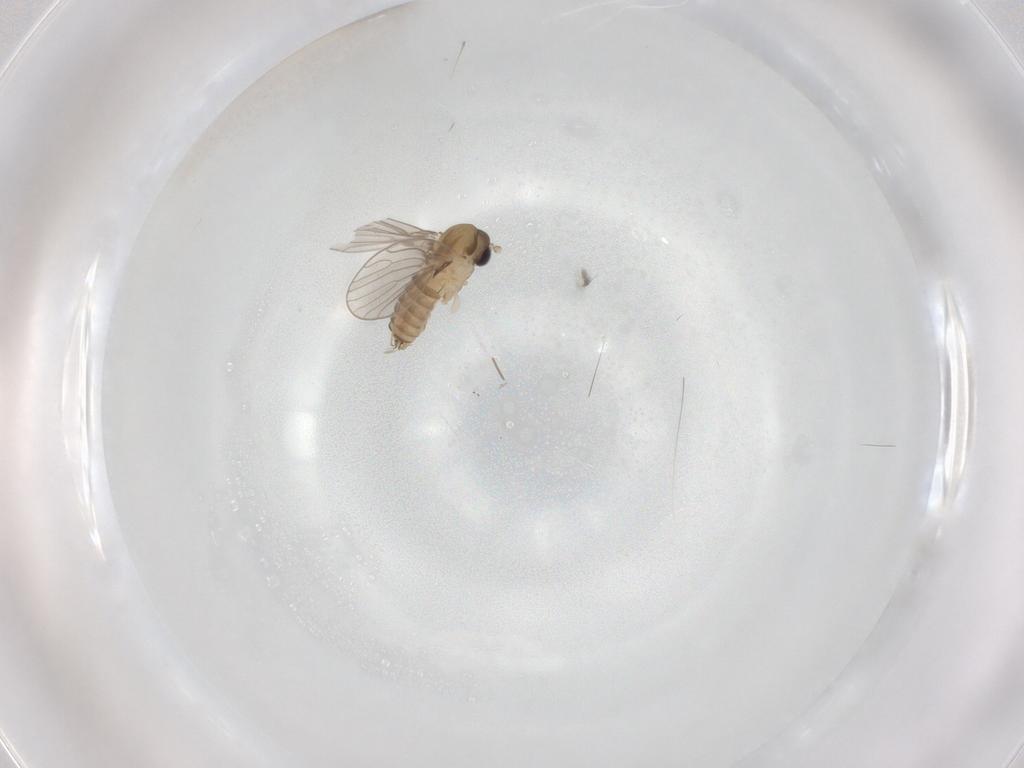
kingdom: Animalia
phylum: Arthropoda
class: Insecta
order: Diptera
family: Psychodidae
